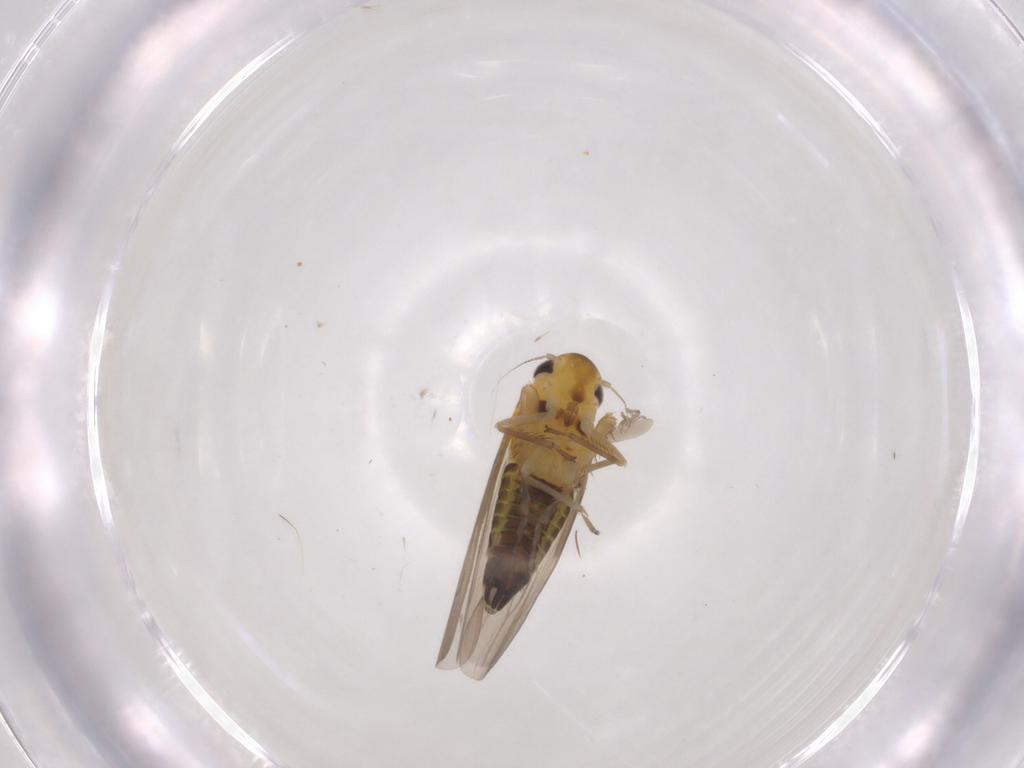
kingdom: Animalia
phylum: Arthropoda
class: Insecta
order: Hemiptera
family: Cicadellidae
